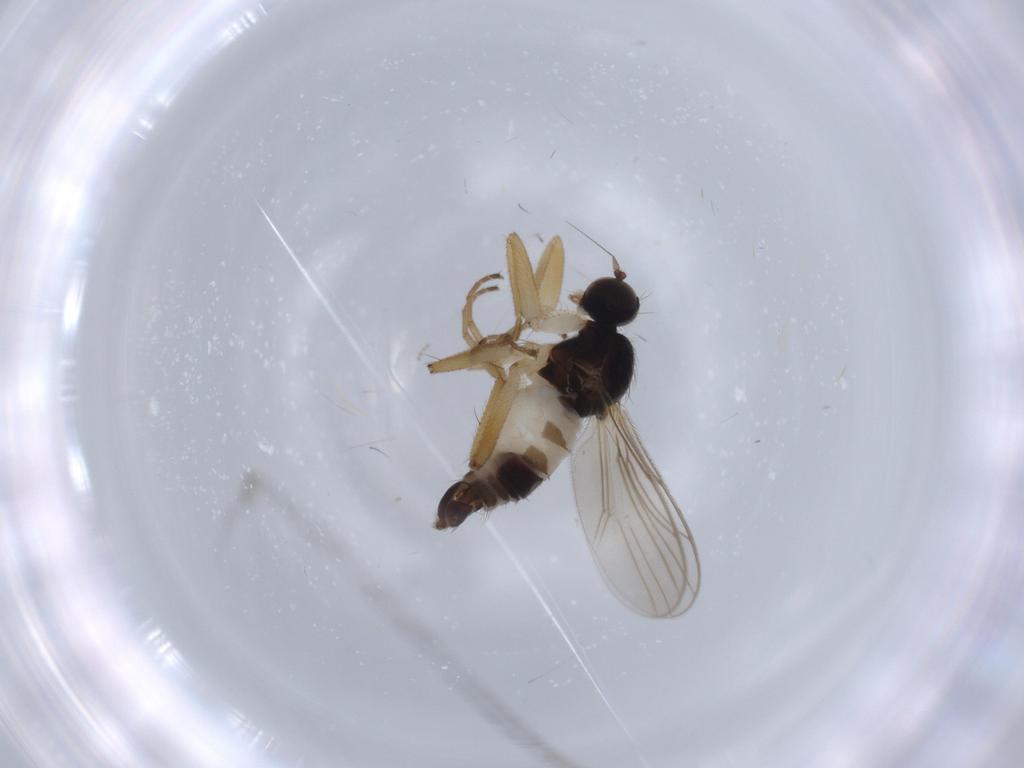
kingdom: Animalia
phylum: Arthropoda
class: Insecta
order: Diptera
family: Hybotidae
